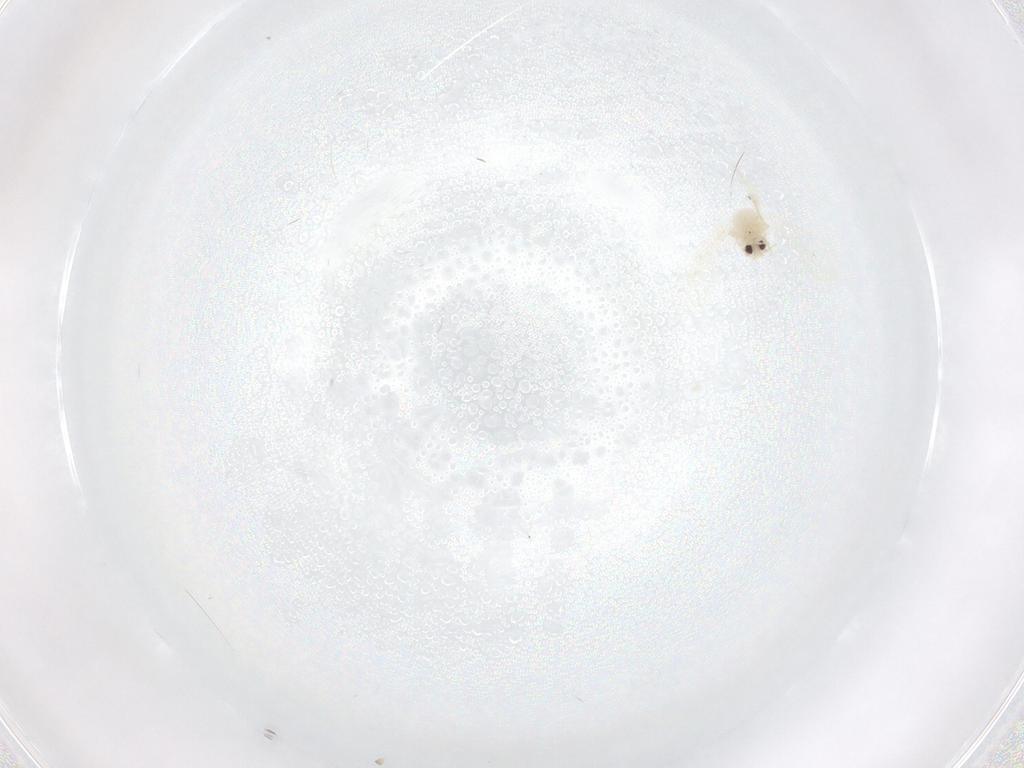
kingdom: Animalia
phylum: Arthropoda
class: Insecta
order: Hemiptera
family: Aleyrodidae
